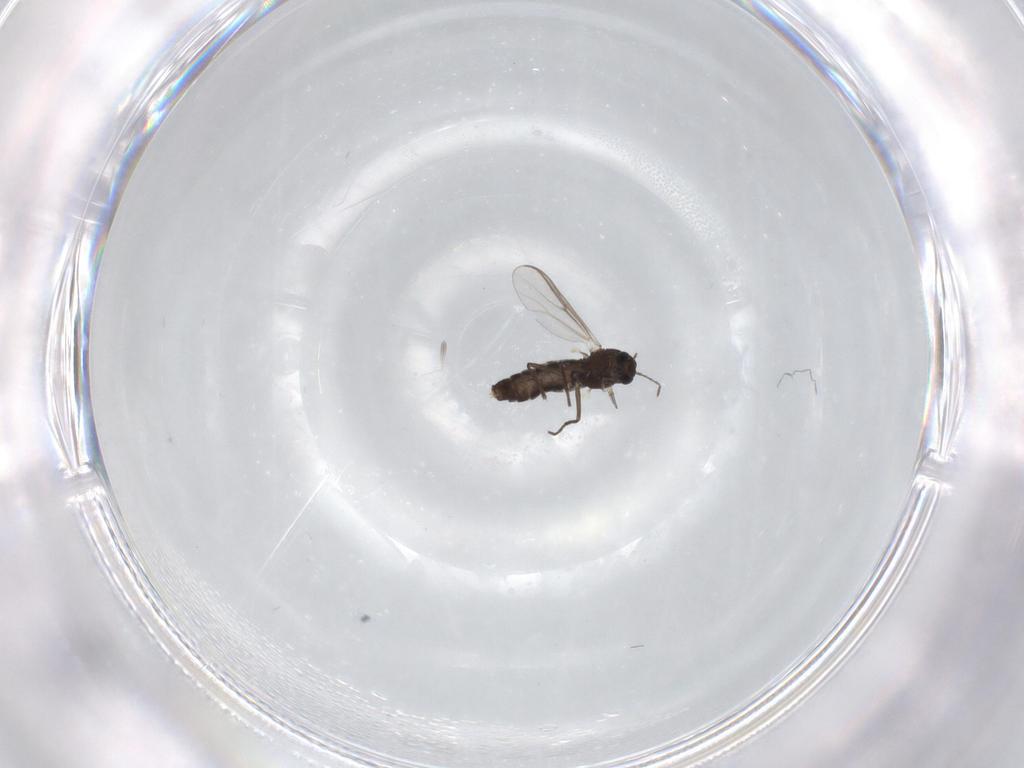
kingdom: Animalia
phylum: Arthropoda
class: Insecta
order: Diptera
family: Chironomidae
